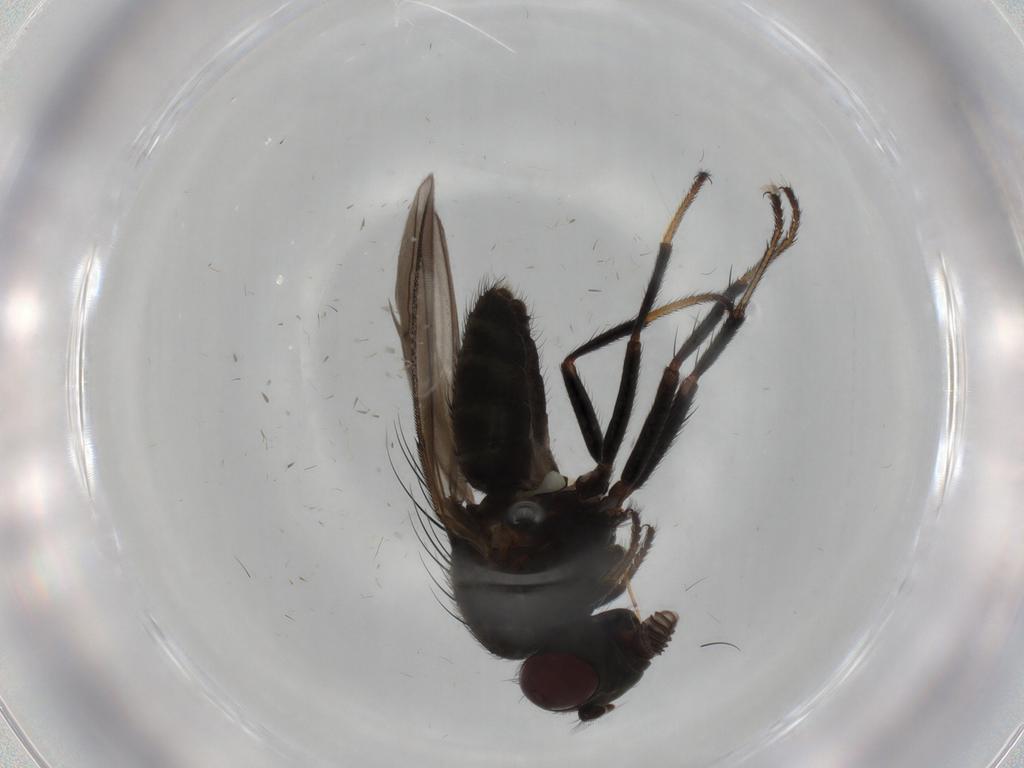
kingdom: Animalia
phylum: Arthropoda
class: Insecta
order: Diptera
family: Ephydridae
